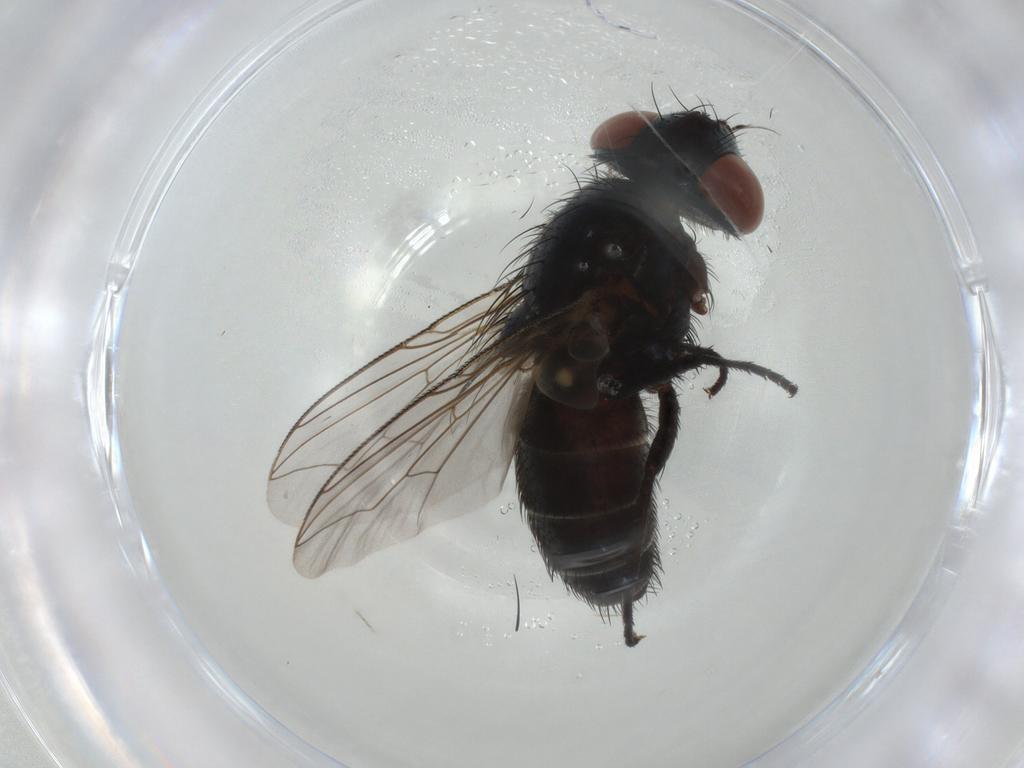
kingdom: Animalia
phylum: Arthropoda
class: Insecta
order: Diptera
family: Sarcophagidae
